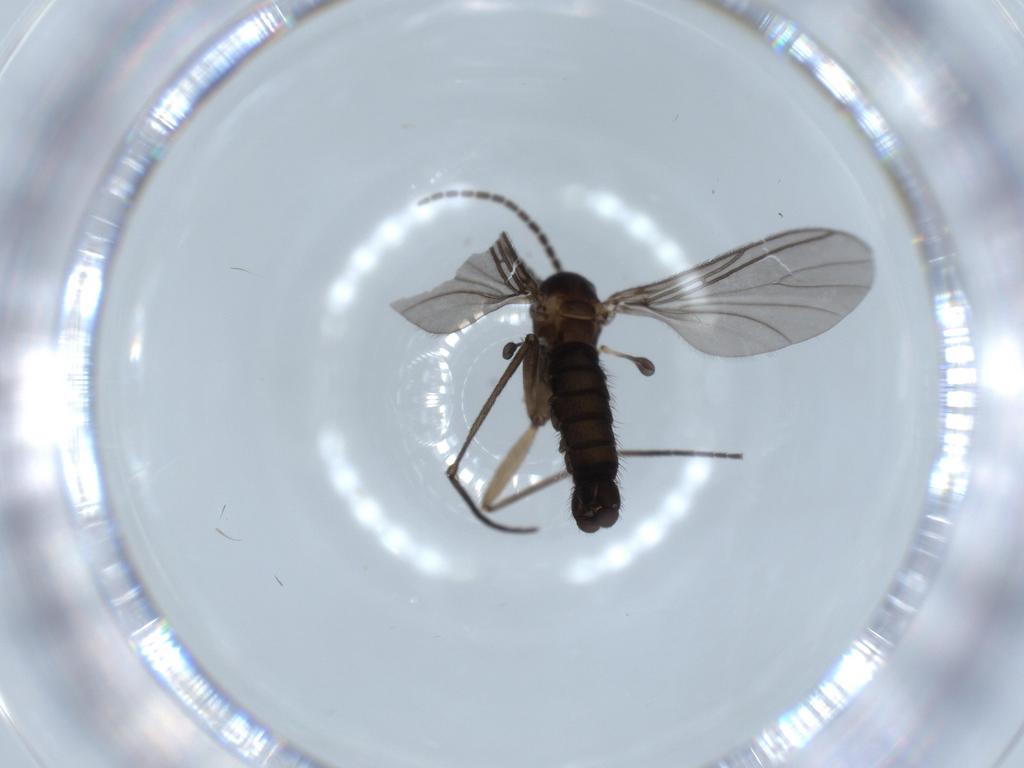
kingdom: Animalia
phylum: Arthropoda
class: Insecta
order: Diptera
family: Sciaridae
